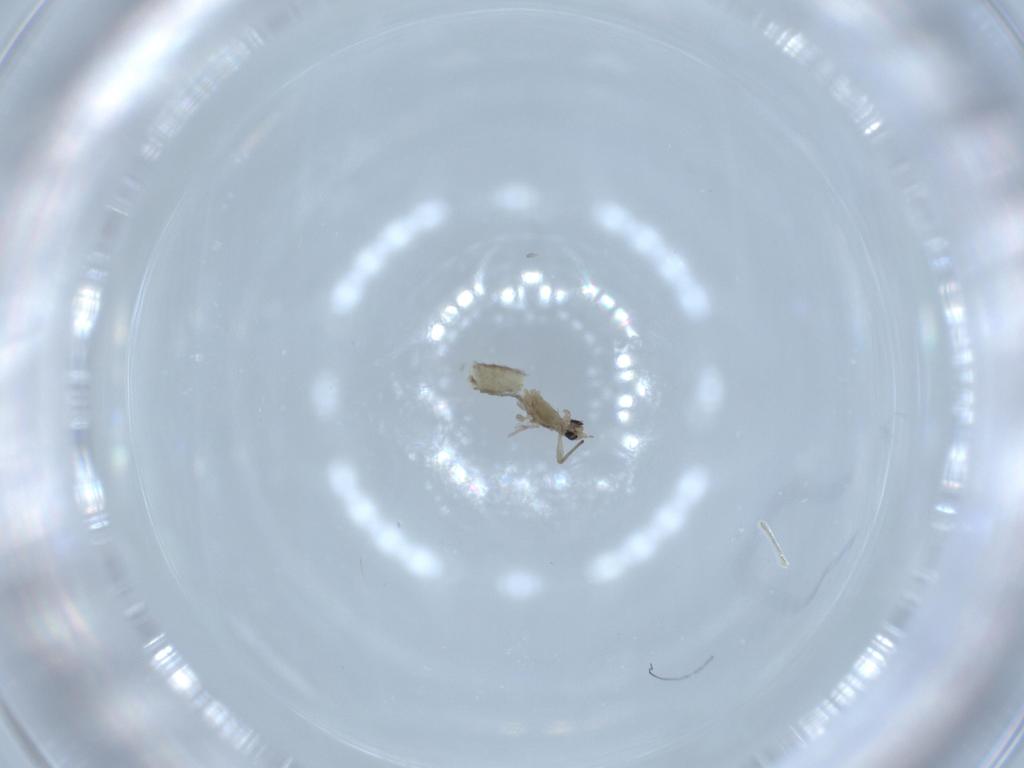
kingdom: Animalia
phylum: Arthropoda
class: Insecta
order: Diptera
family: Chironomidae
